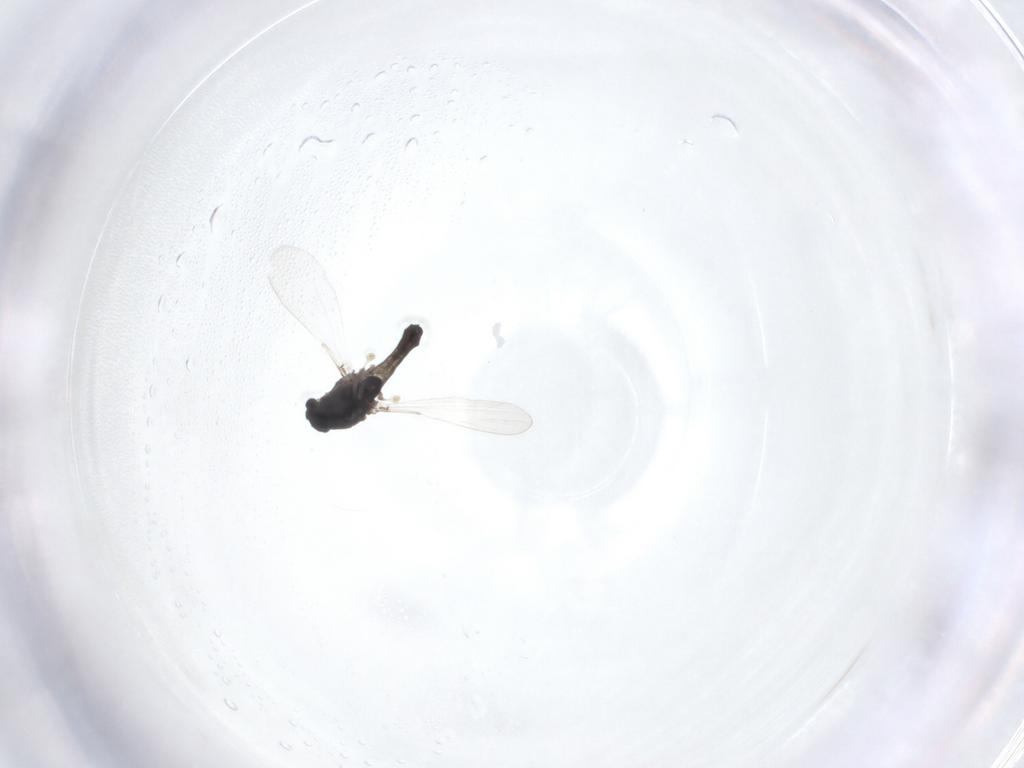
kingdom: Animalia
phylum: Arthropoda
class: Insecta
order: Diptera
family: Chironomidae
